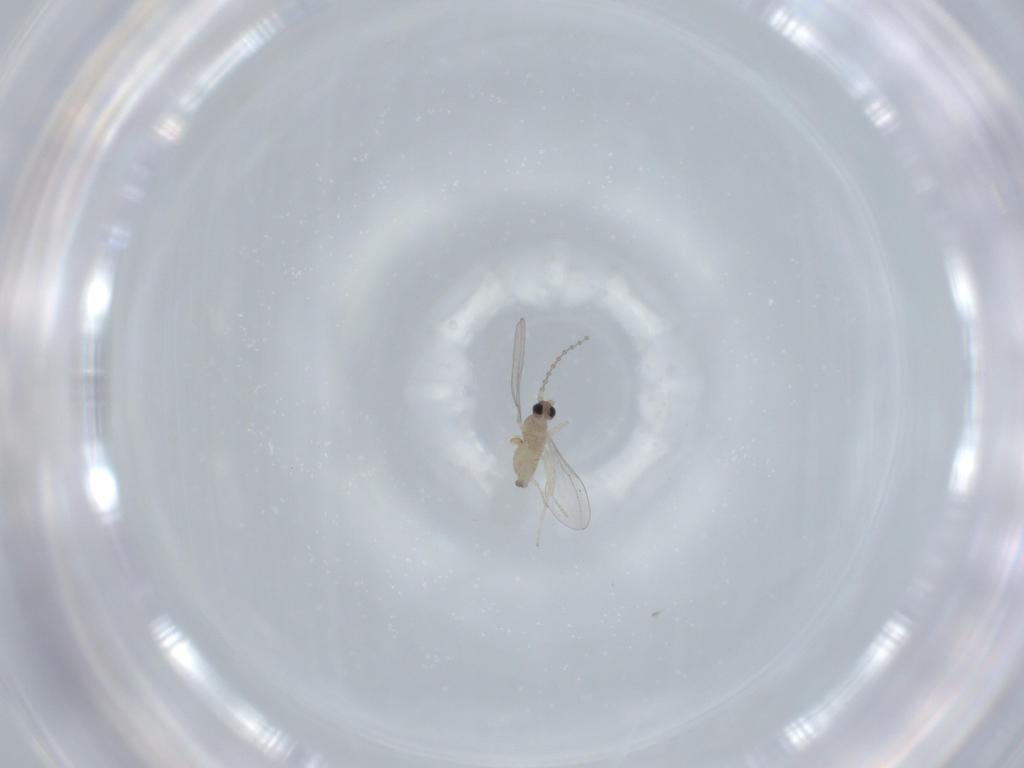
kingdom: Animalia
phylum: Arthropoda
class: Insecta
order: Diptera
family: Cecidomyiidae
